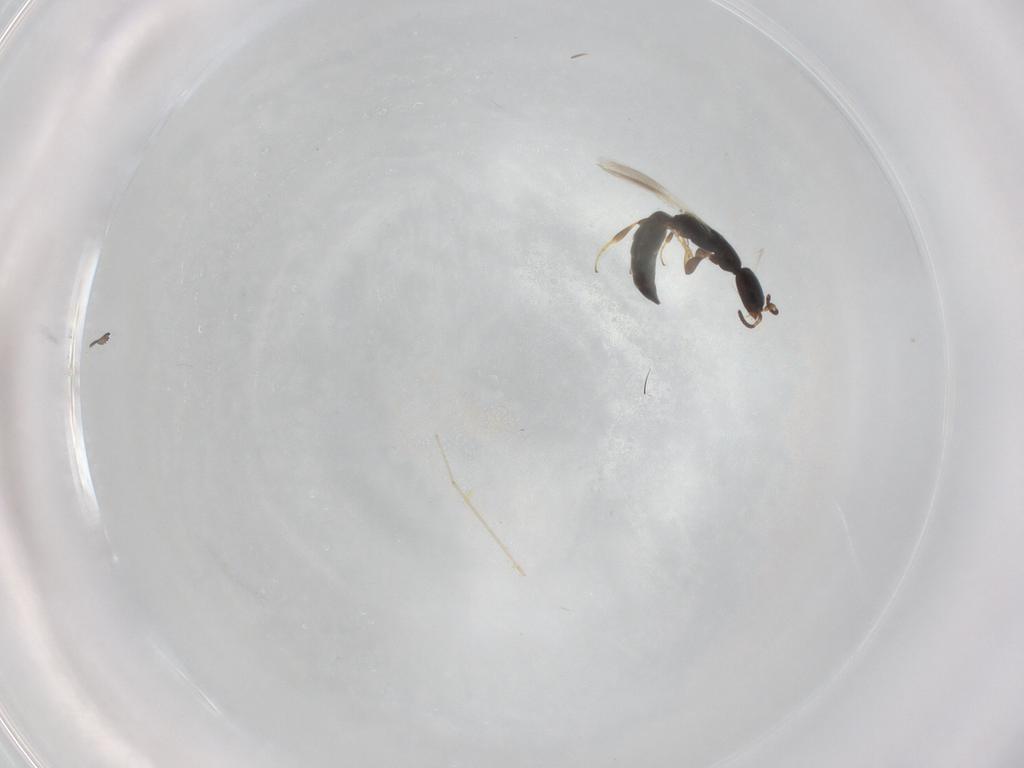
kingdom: Animalia
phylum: Arthropoda
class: Insecta
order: Hymenoptera
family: Bethylidae
